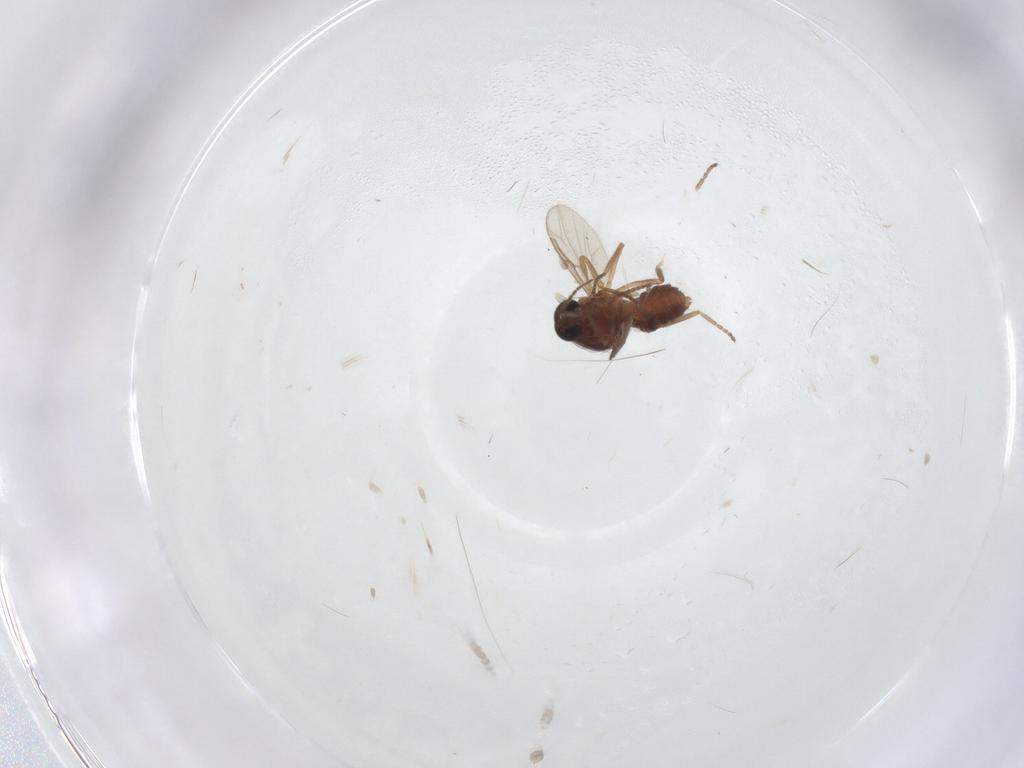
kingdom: Animalia
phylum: Arthropoda
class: Insecta
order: Diptera
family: Ceratopogonidae
